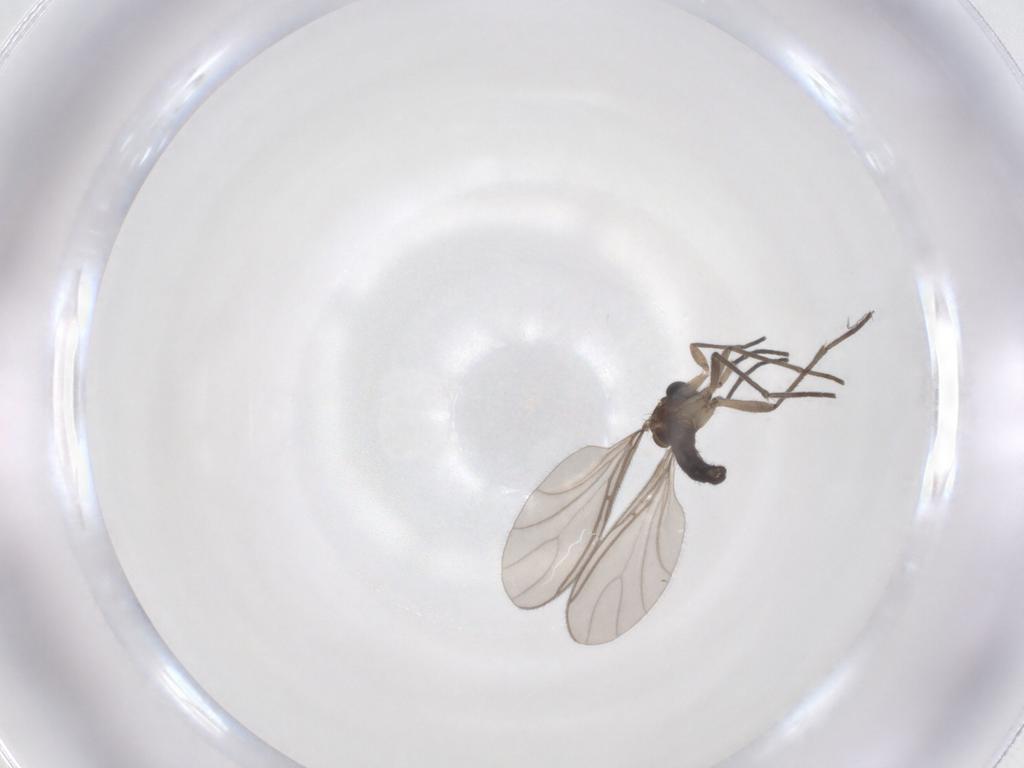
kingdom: Animalia
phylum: Arthropoda
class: Insecta
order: Diptera
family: Sciaridae
